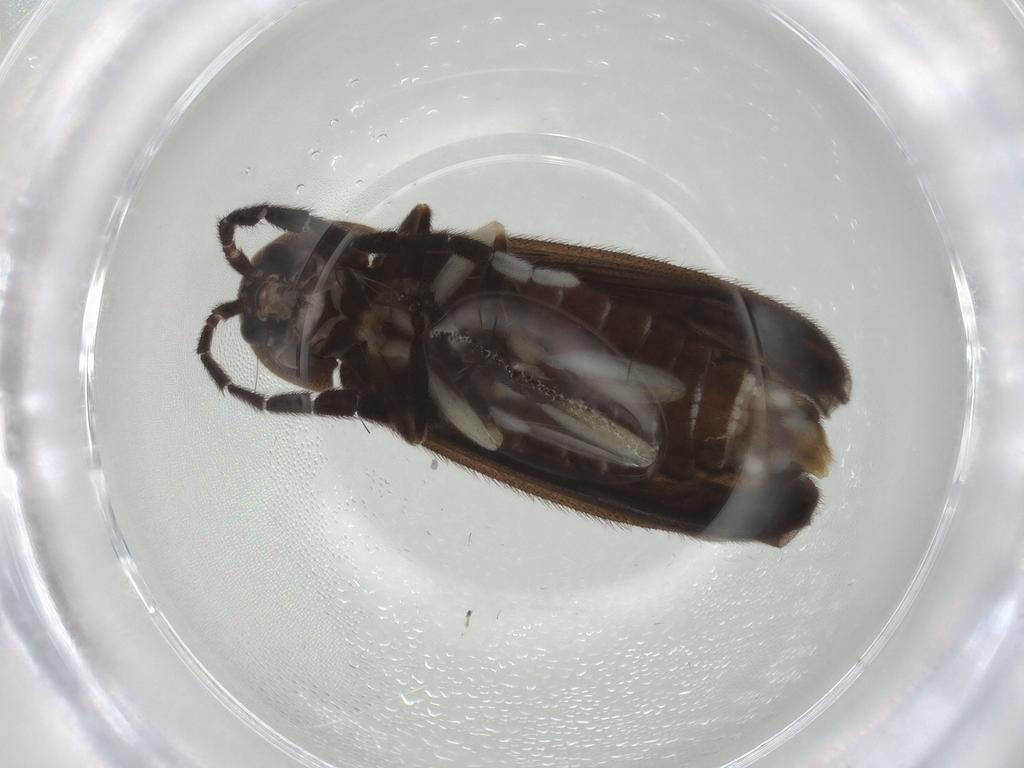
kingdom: Animalia
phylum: Arthropoda
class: Insecta
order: Coleoptera
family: Lampyridae
